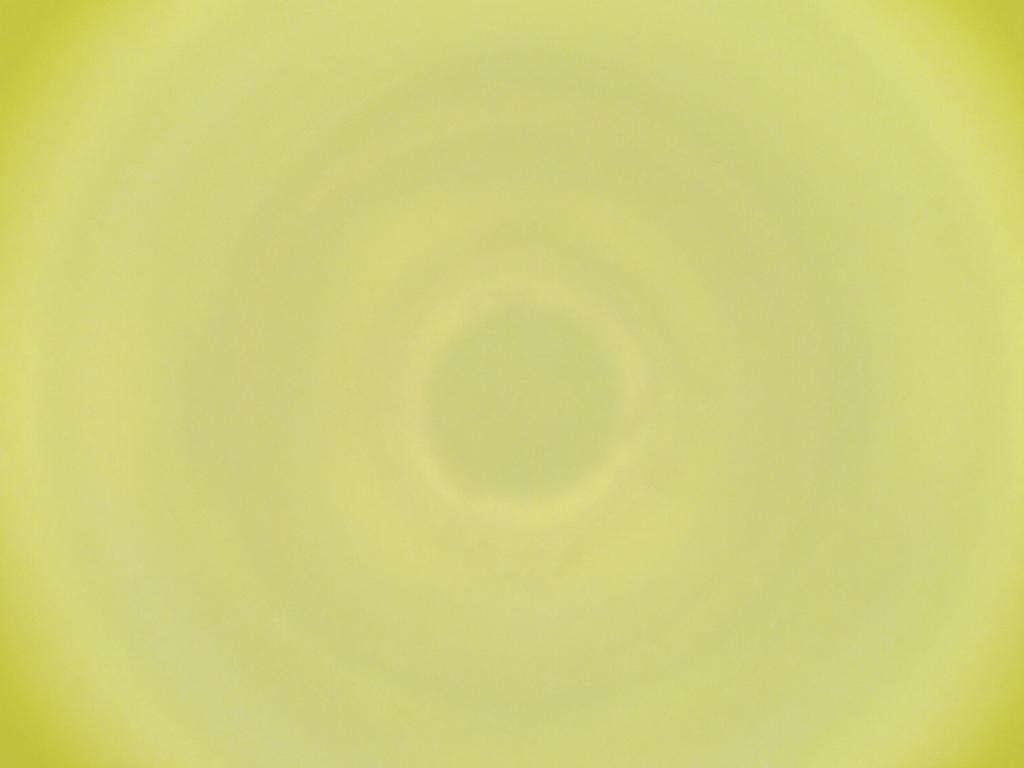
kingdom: Animalia
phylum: Arthropoda
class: Insecta
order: Diptera
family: Cecidomyiidae
